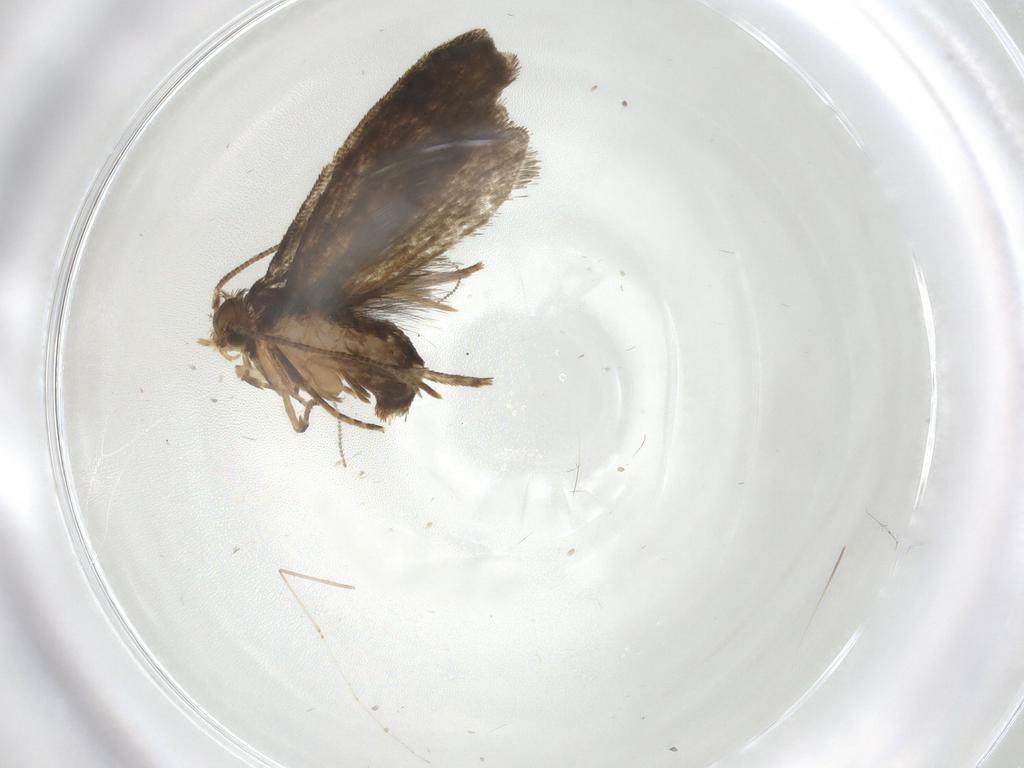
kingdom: Animalia
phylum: Arthropoda
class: Insecta
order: Lepidoptera
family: Tineidae
